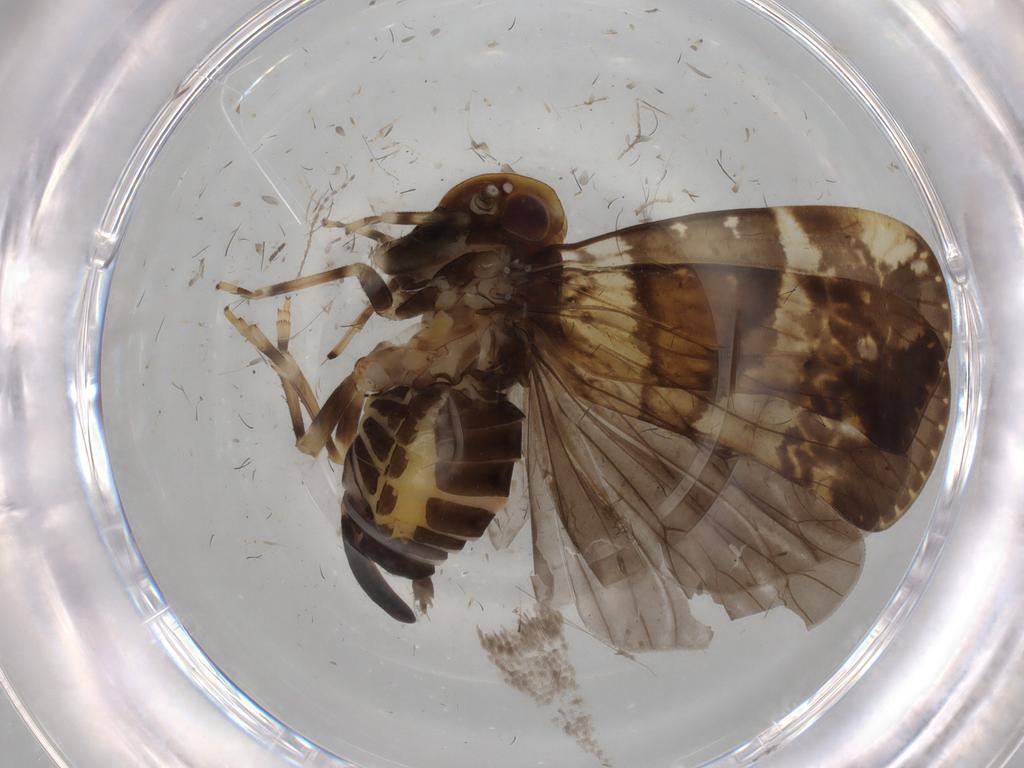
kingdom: Animalia
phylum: Arthropoda
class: Insecta
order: Hemiptera
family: Cixiidae
